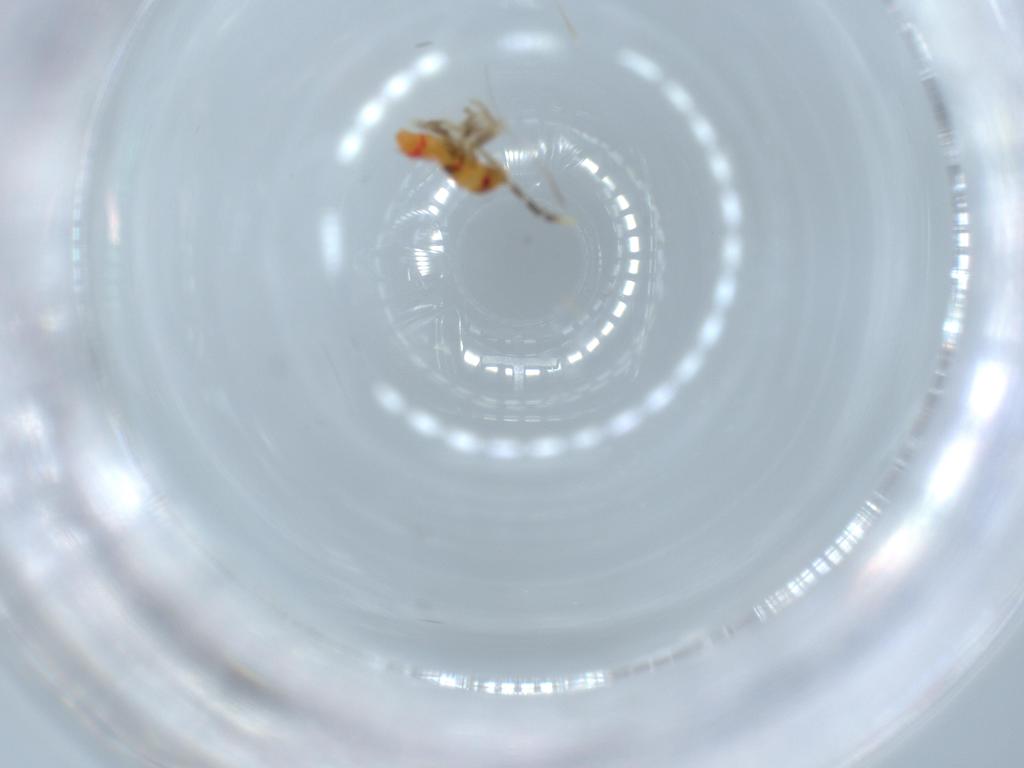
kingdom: Animalia
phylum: Arthropoda
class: Insecta
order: Hemiptera
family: Rhyparochromidae
